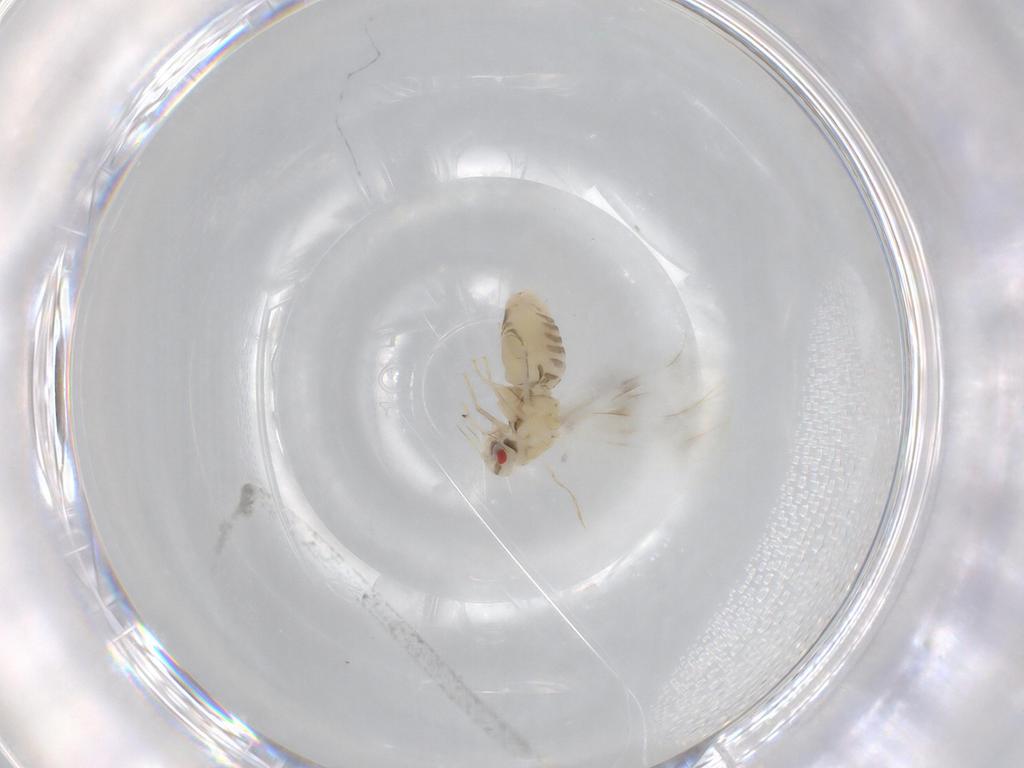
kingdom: Animalia
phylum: Arthropoda
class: Insecta
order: Hemiptera
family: Aleyrodidae
